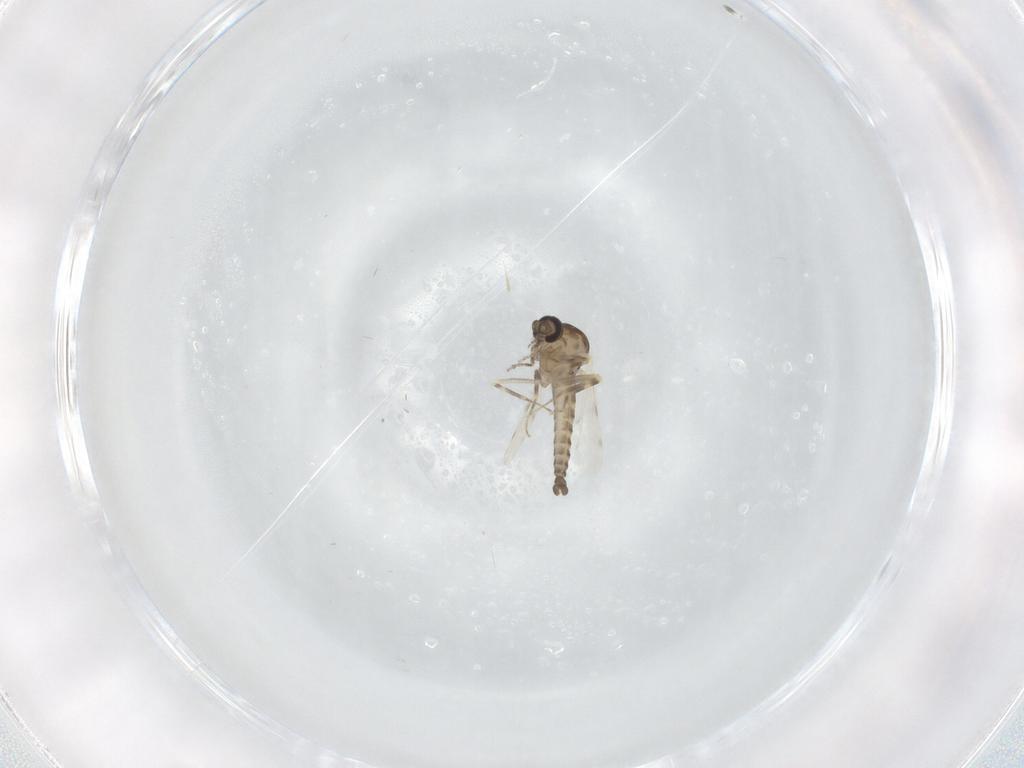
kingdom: Animalia
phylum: Arthropoda
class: Insecta
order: Diptera
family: Ceratopogonidae
